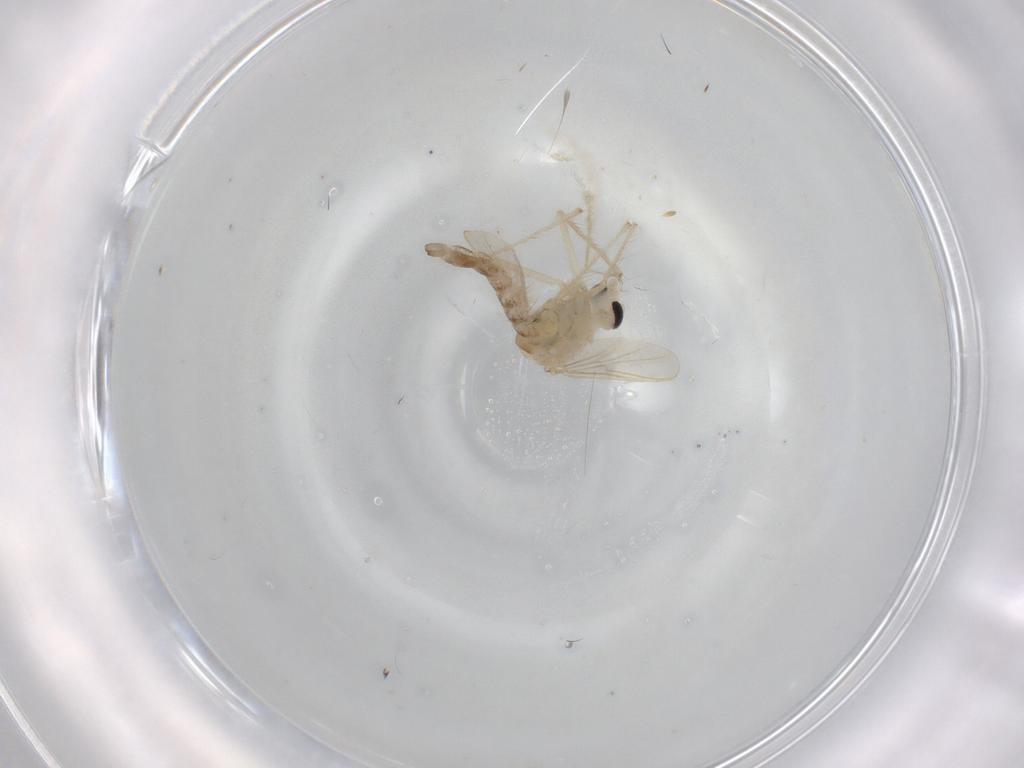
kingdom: Animalia
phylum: Arthropoda
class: Insecta
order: Diptera
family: Chironomidae
